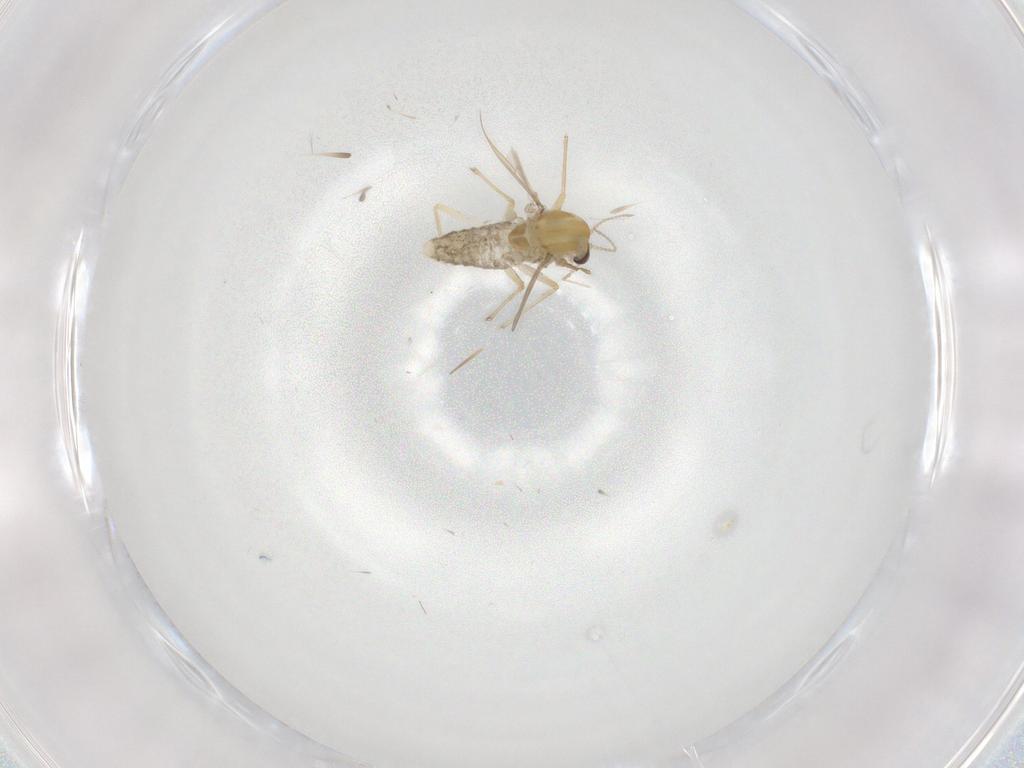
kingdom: Animalia
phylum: Arthropoda
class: Insecta
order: Diptera
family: Chironomidae
